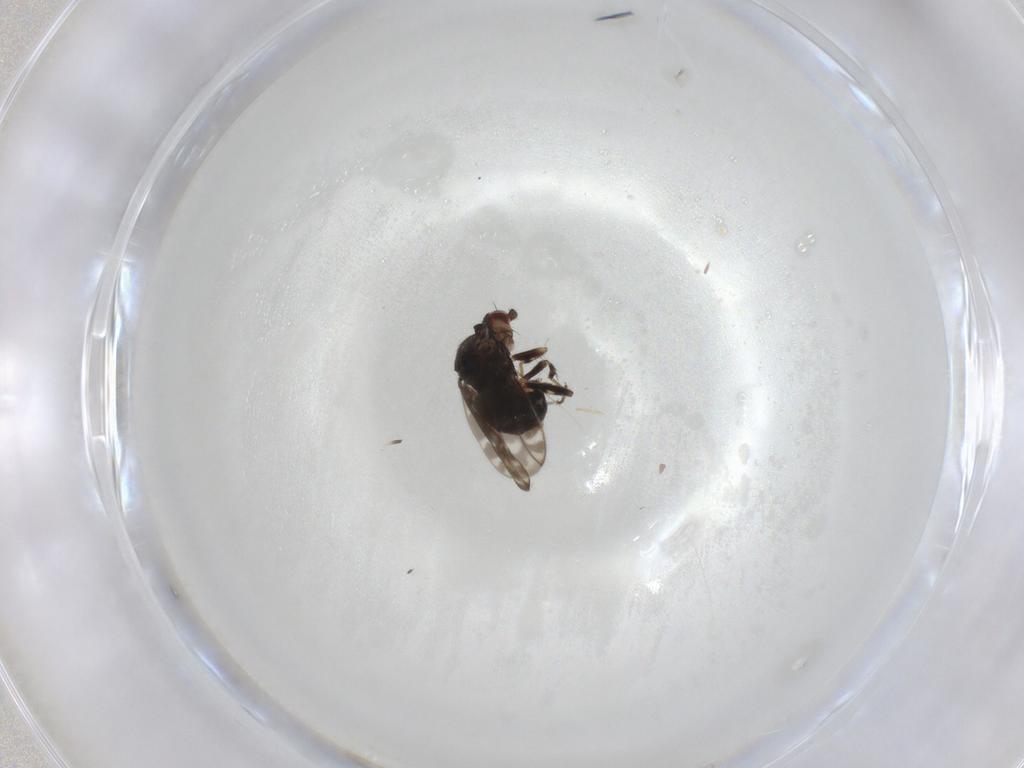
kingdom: Animalia
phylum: Arthropoda
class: Insecta
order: Diptera
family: Sphaeroceridae
